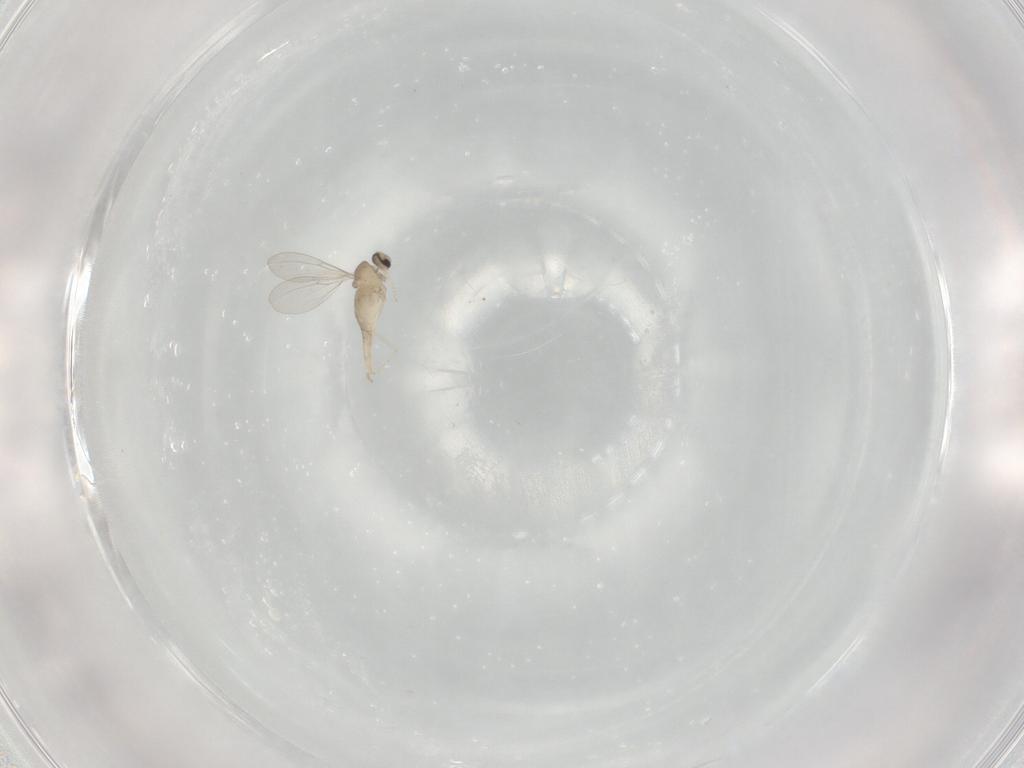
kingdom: Animalia
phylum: Arthropoda
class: Insecta
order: Diptera
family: Cecidomyiidae
